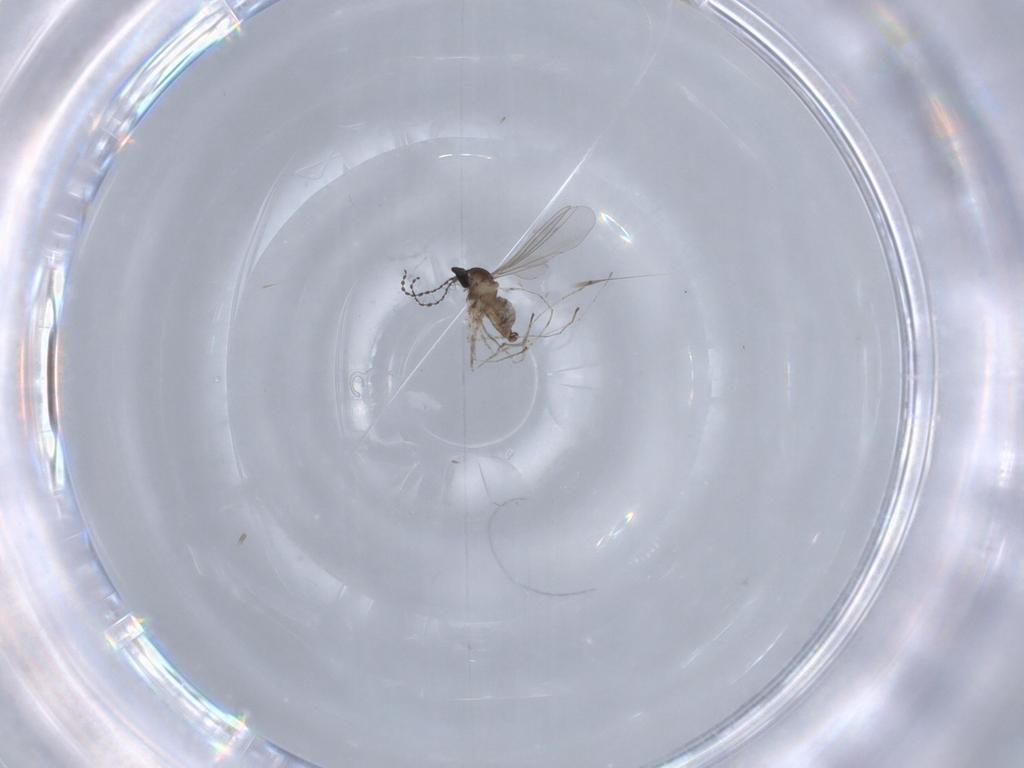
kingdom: Animalia
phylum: Arthropoda
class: Insecta
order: Diptera
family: Cecidomyiidae
